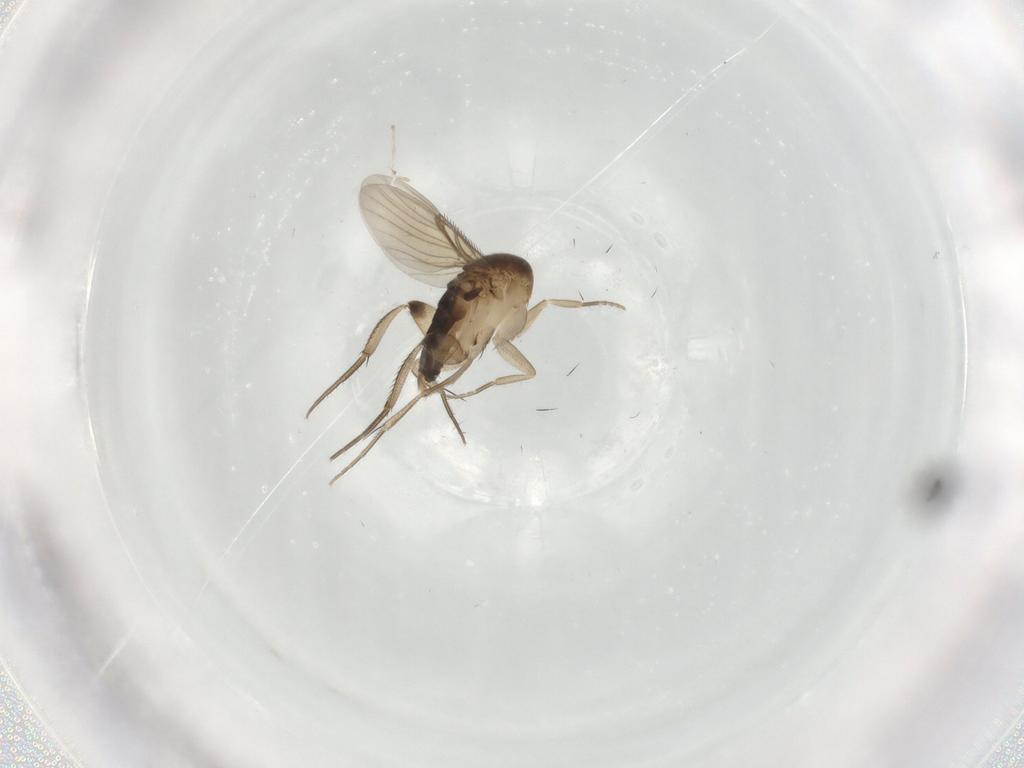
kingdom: Animalia
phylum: Arthropoda
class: Insecta
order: Diptera
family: Phoridae
